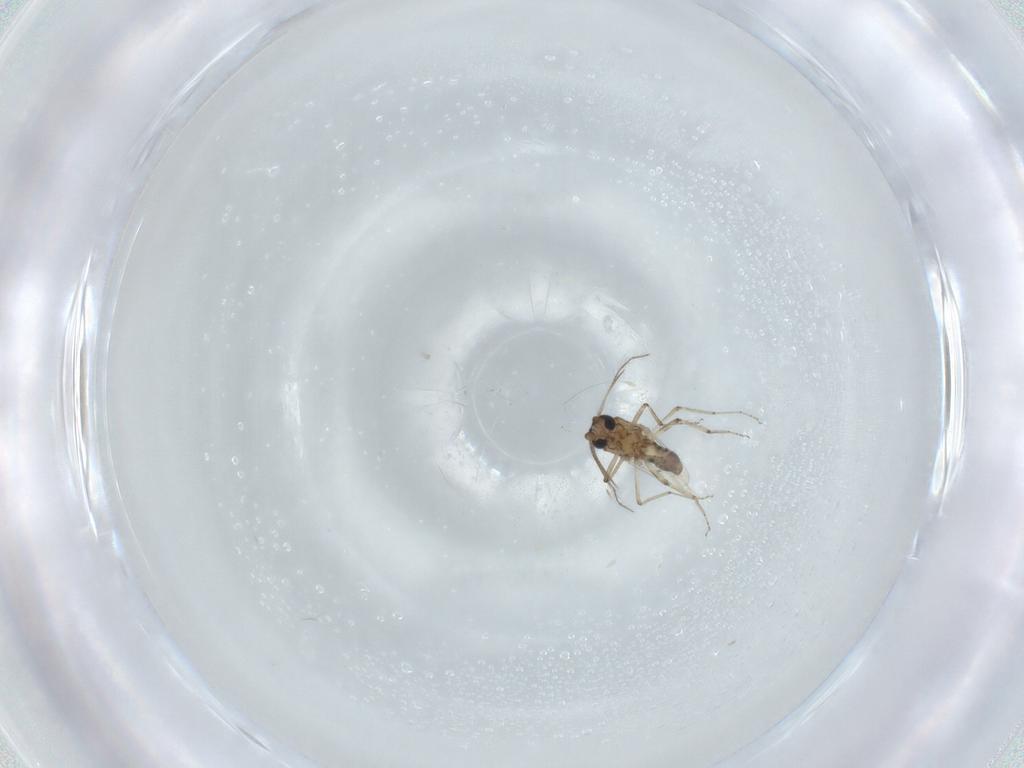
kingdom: Animalia
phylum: Arthropoda
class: Insecta
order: Diptera
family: Ceratopogonidae
